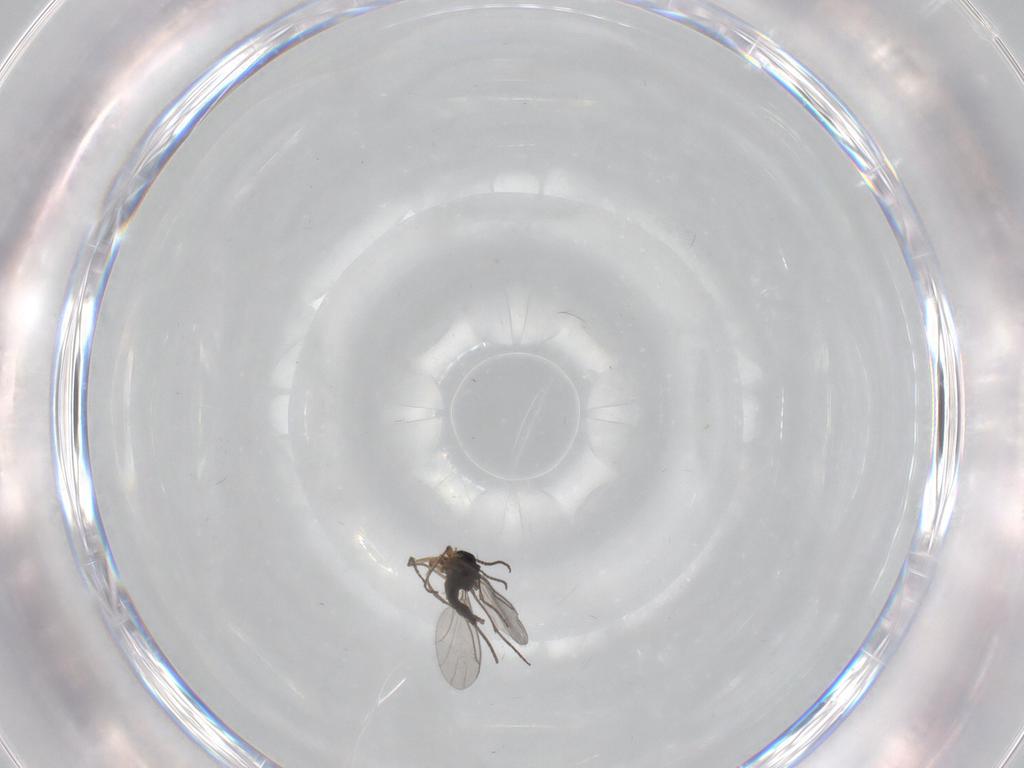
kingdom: Animalia
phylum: Arthropoda
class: Insecta
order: Diptera
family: Sciaridae
